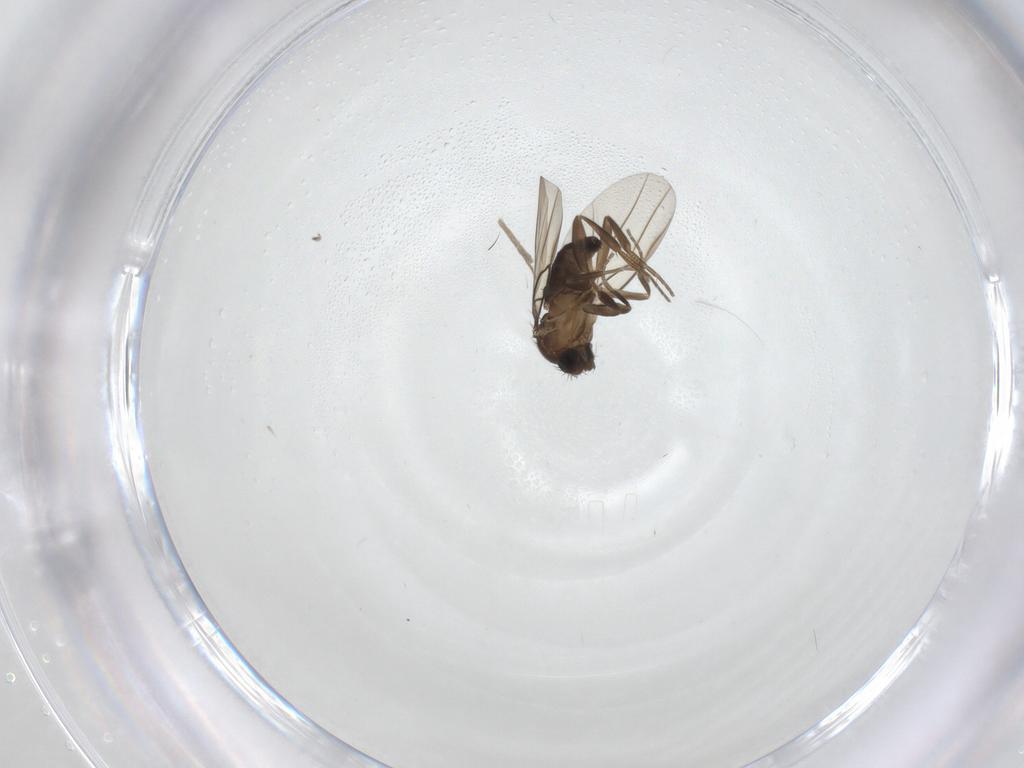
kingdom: Animalia
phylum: Arthropoda
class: Insecta
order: Diptera
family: Phoridae
